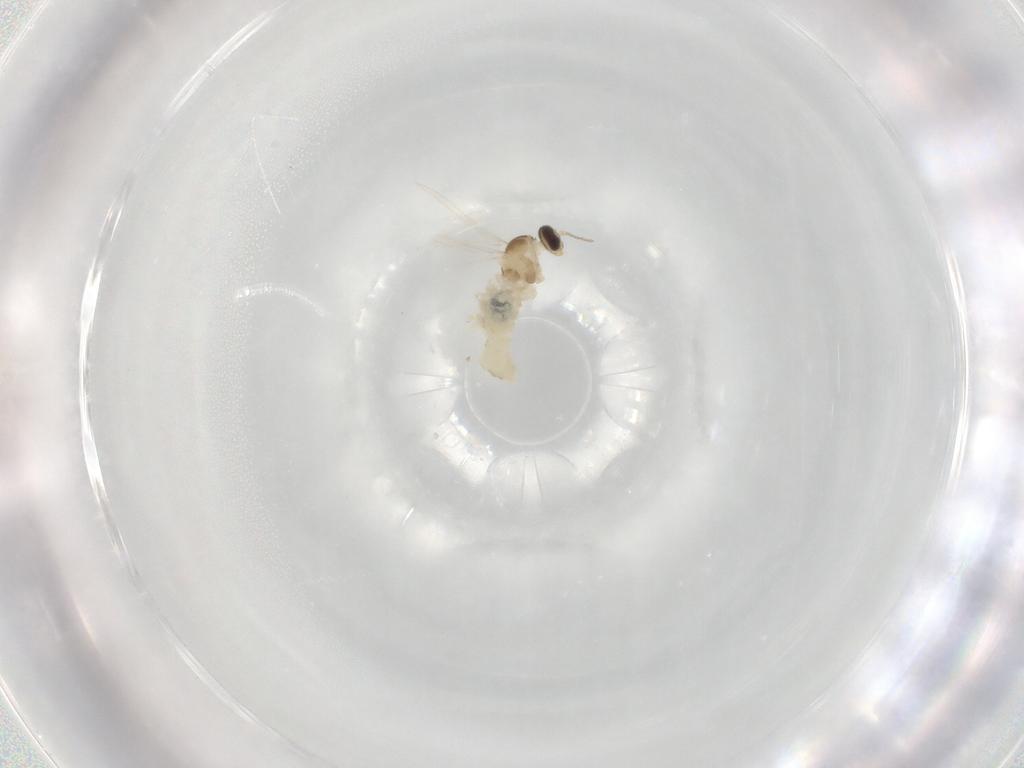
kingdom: Animalia
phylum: Arthropoda
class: Insecta
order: Diptera
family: Cecidomyiidae
